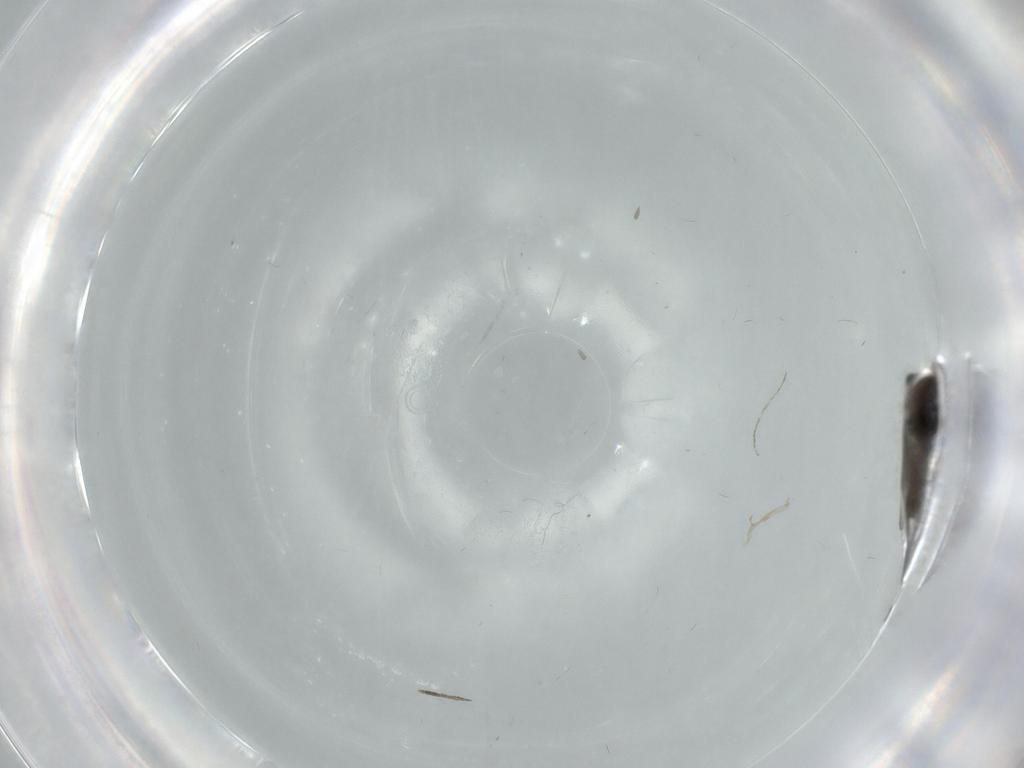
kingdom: Animalia
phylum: Arthropoda
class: Insecta
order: Diptera
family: Psychodidae
